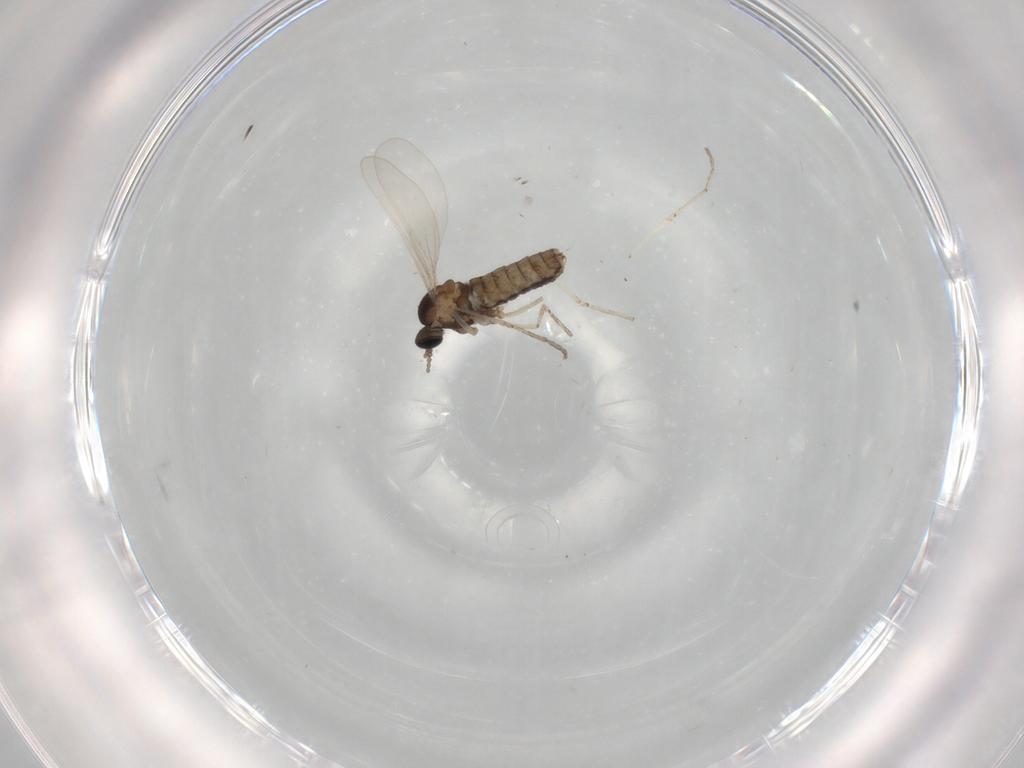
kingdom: Animalia
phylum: Arthropoda
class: Insecta
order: Diptera
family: Cecidomyiidae
